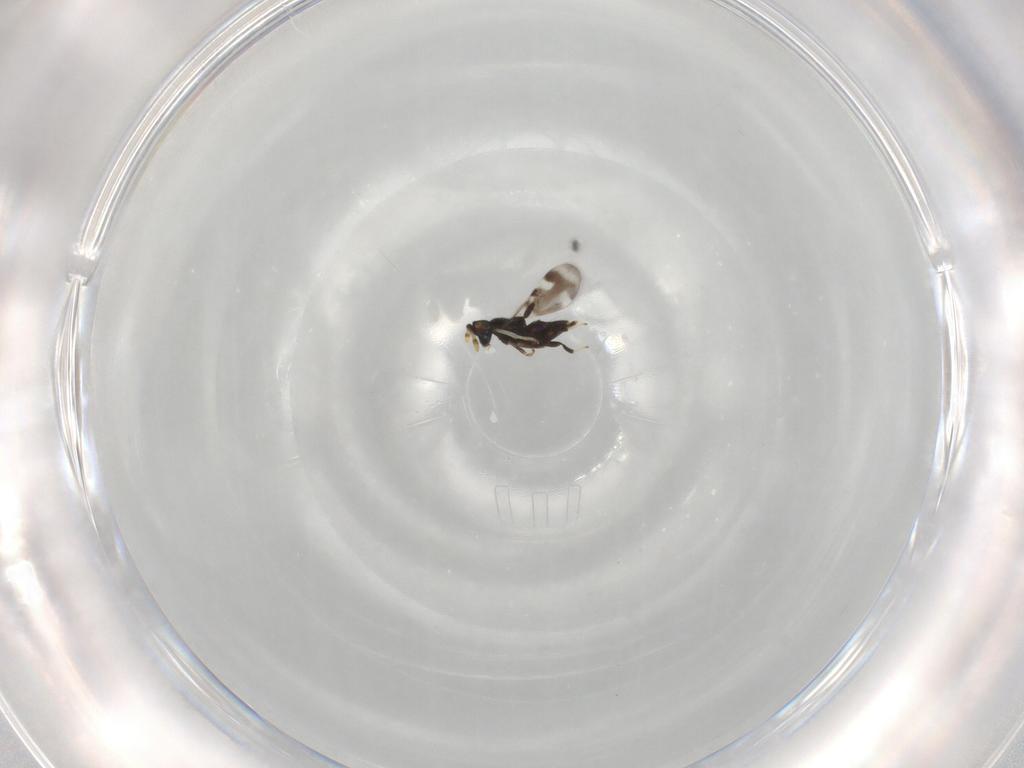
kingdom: Animalia
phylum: Arthropoda
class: Insecta
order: Hymenoptera
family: Encyrtidae
